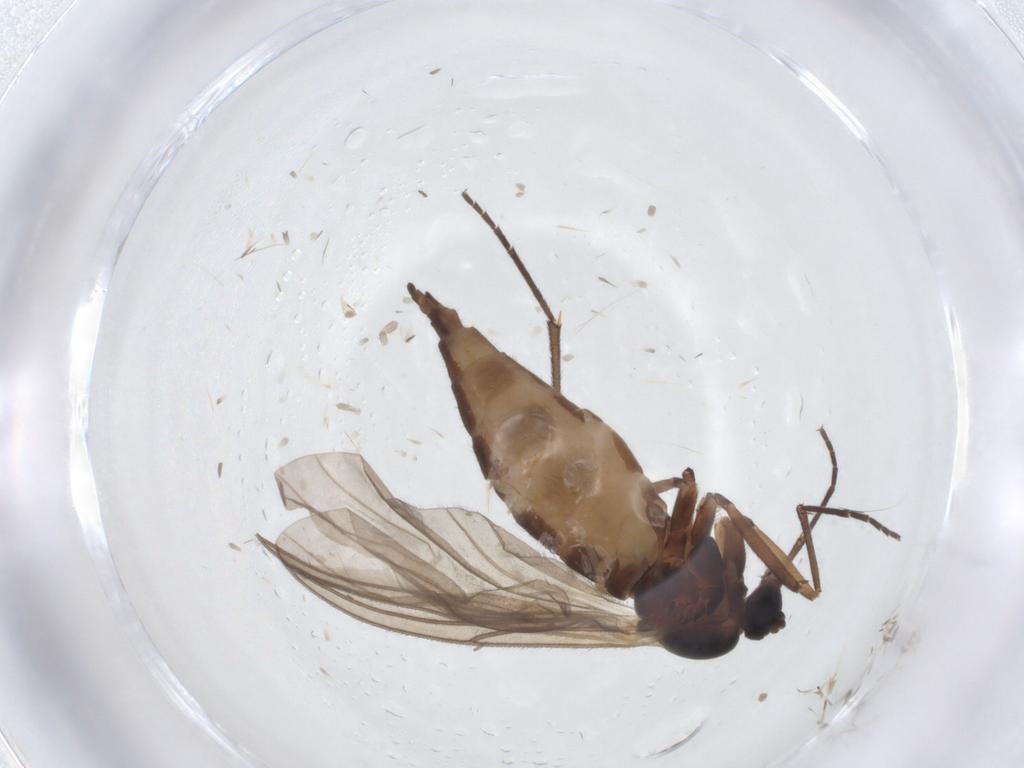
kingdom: Animalia
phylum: Arthropoda
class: Insecta
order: Diptera
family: Sciaridae
